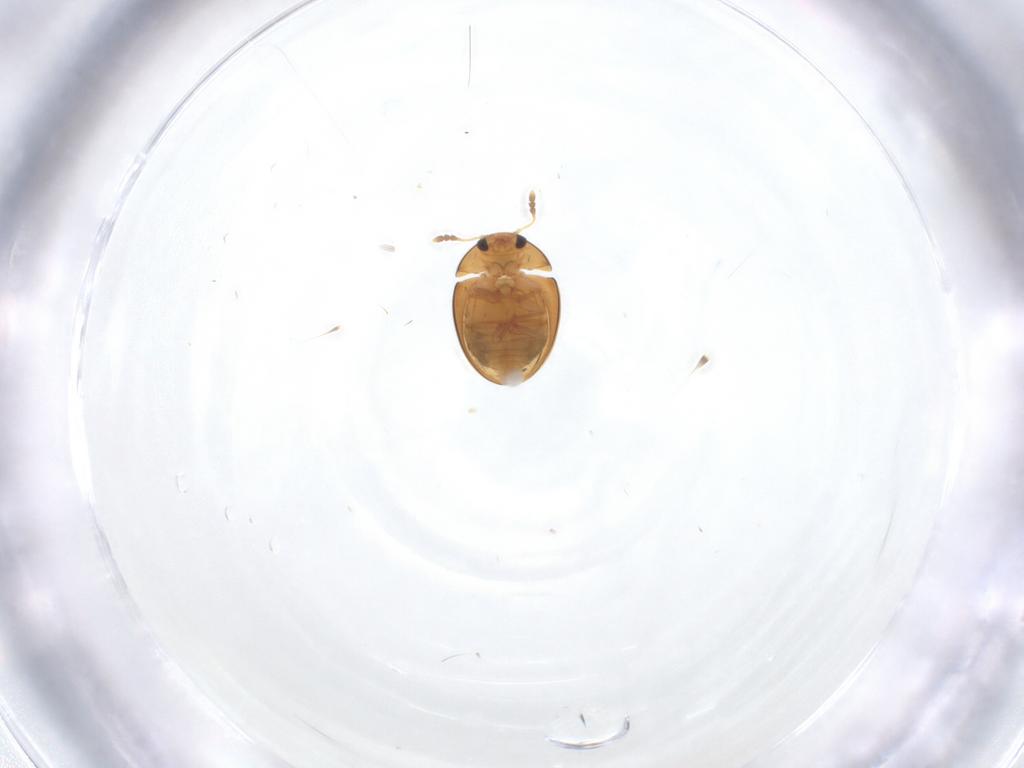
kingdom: Animalia
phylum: Arthropoda
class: Insecta
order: Coleoptera
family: Phalacridae
